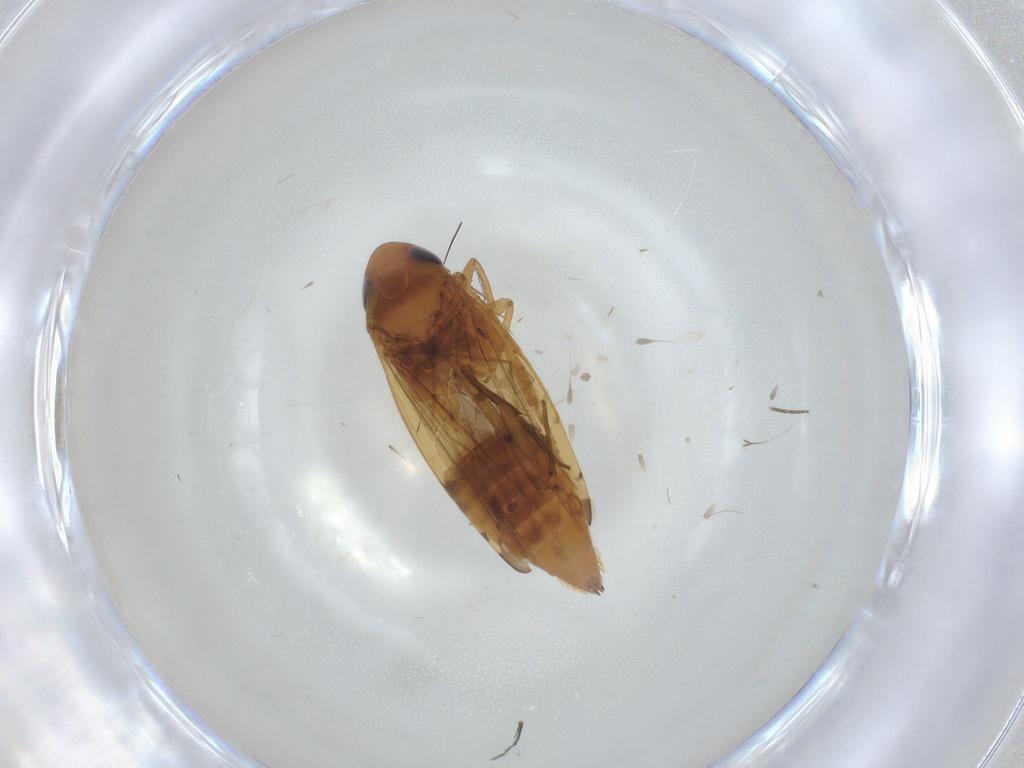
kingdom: Animalia
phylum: Arthropoda
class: Insecta
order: Hemiptera
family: Cicadellidae
